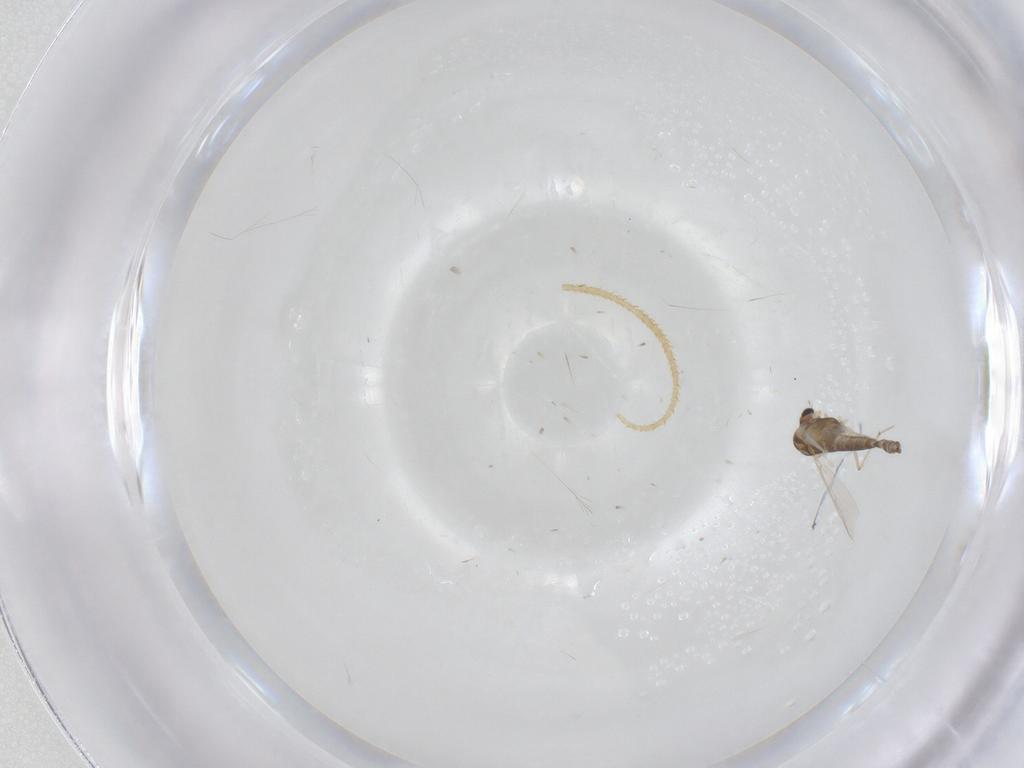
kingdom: Animalia
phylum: Arthropoda
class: Insecta
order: Diptera
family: Chironomidae
